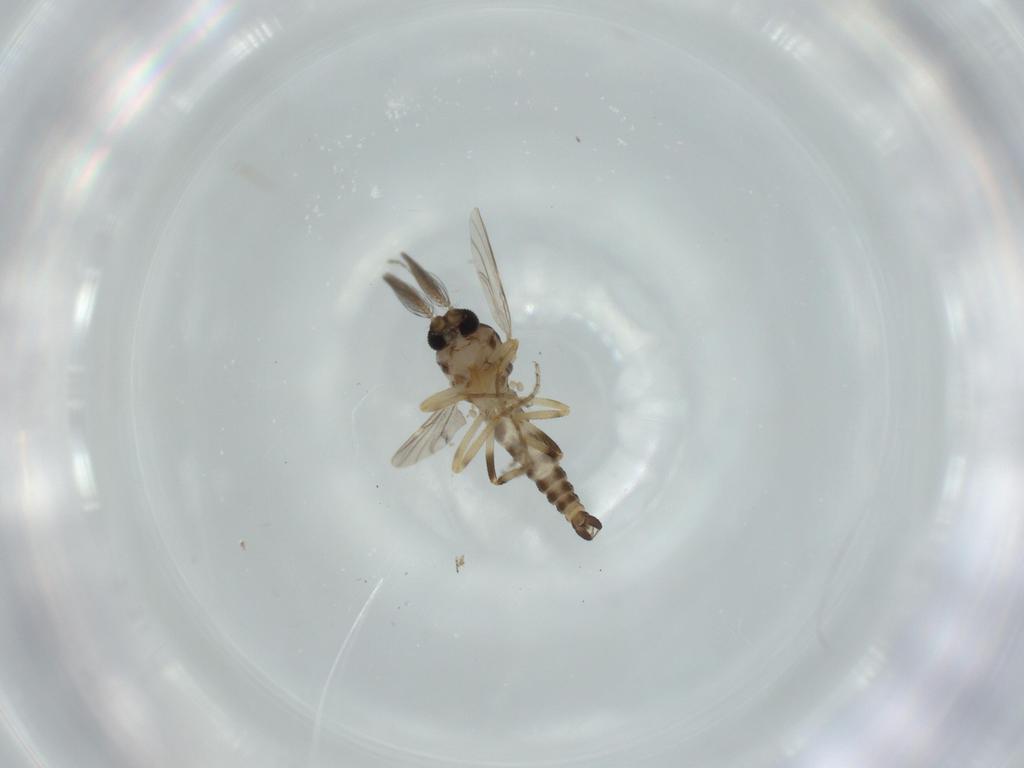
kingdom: Animalia
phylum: Arthropoda
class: Insecta
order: Diptera
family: Ceratopogonidae
